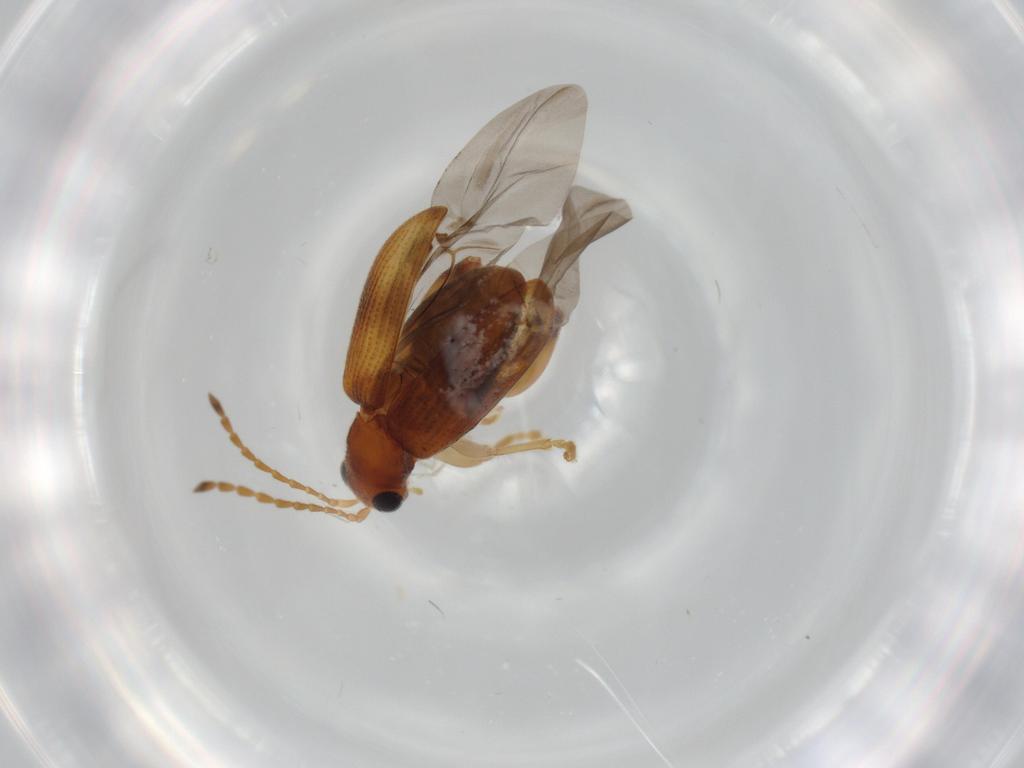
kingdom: Animalia
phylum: Arthropoda
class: Insecta
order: Coleoptera
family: Chrysomelidae
